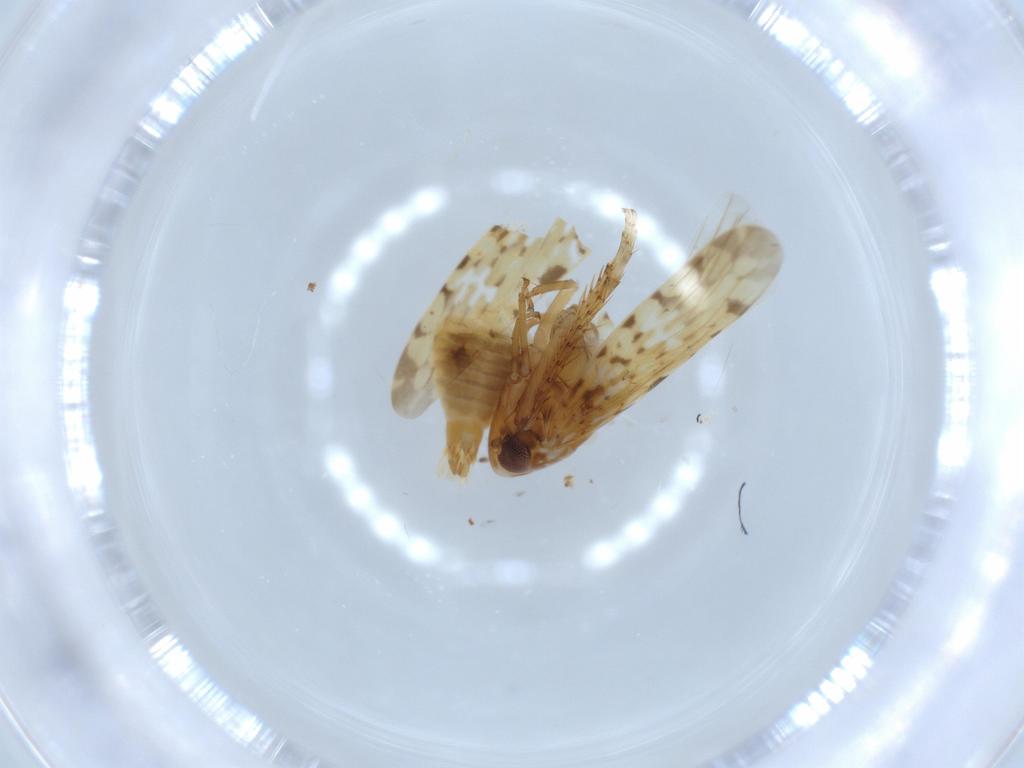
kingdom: Animalia
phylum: Arthropoda
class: Insecta
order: Hemiptera
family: Cicadellidae
